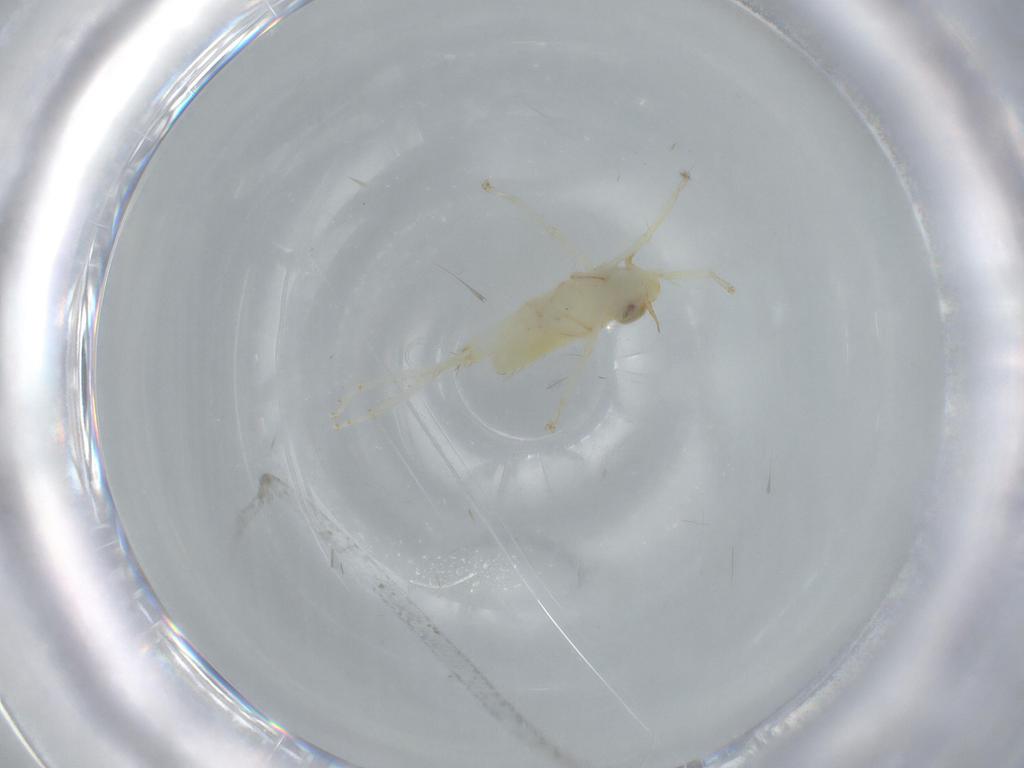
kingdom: Animalia
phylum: Arthropoda
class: Insecta
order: Hemiptera
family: Cicadellidae
